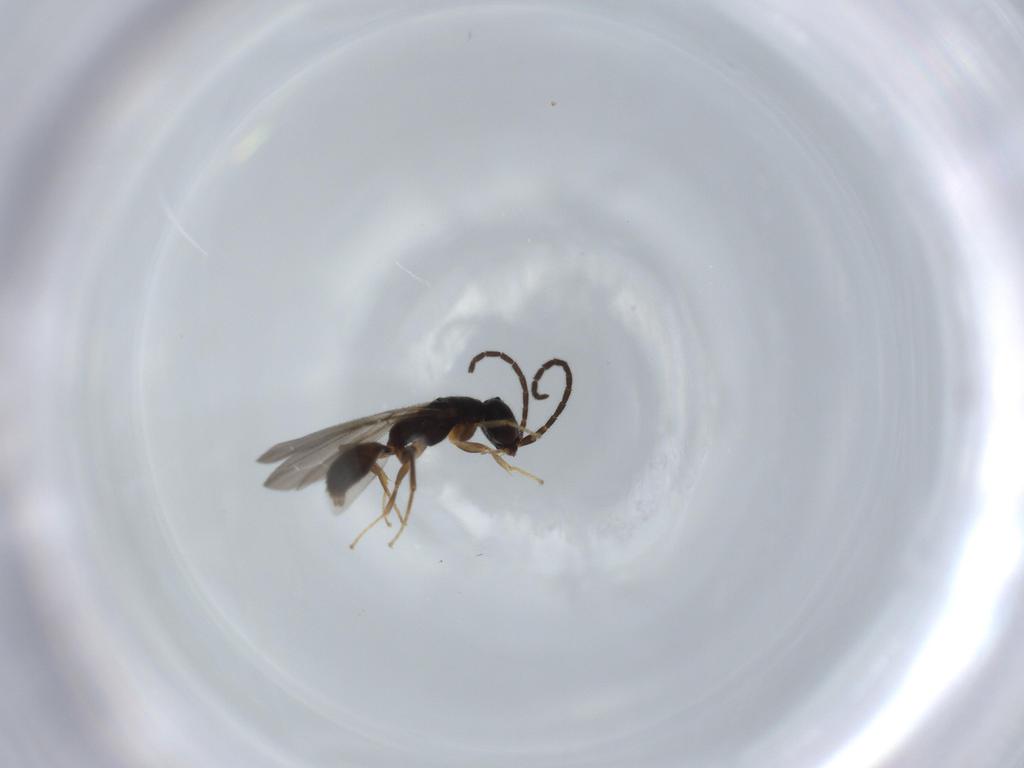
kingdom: Animalia
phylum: Arthropoda
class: Insecta
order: Hymenoptera
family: Bethylidae
